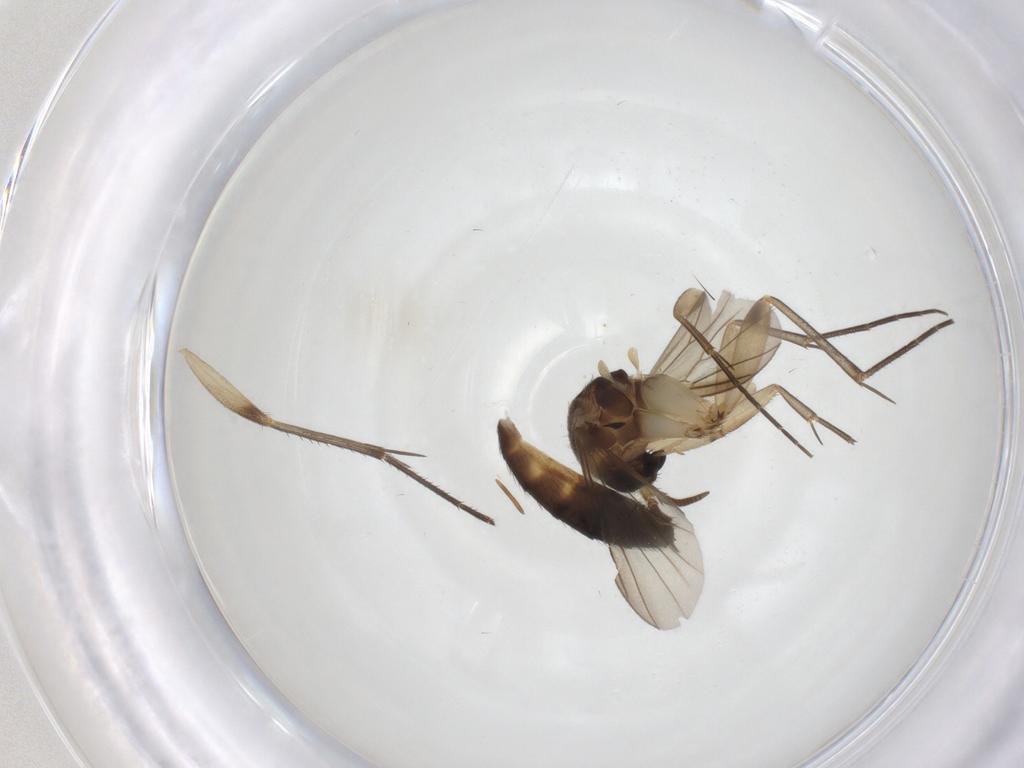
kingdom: Animalia
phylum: Arthropoda
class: Insecta
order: Diptera
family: Mycetophilidae
